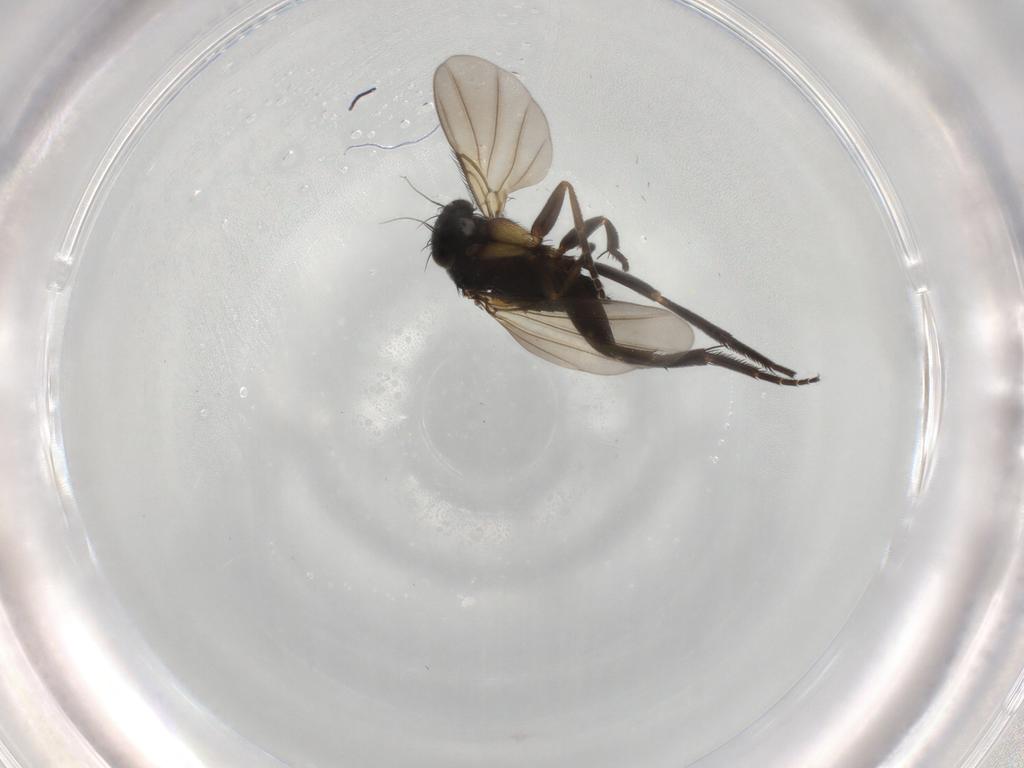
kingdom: Animalia
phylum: Arthropoda
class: Insecta
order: Diptera
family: Phoridae
